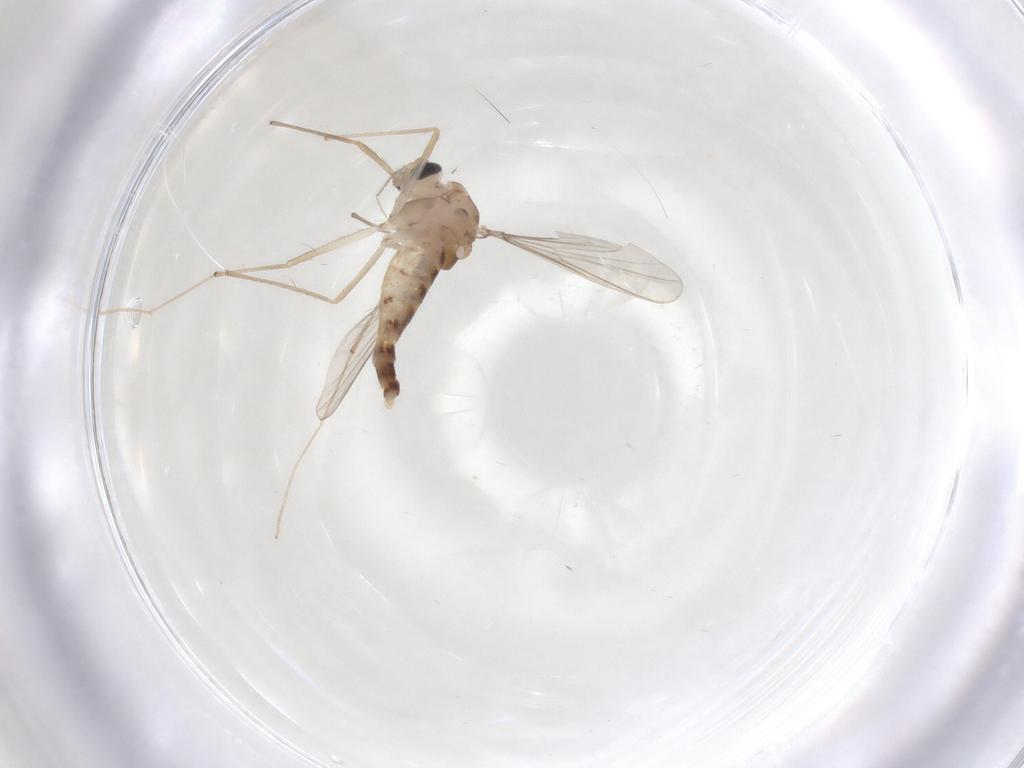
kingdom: Animalia
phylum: Arthropoda
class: Insecta
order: Diptera
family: Chironomidae
